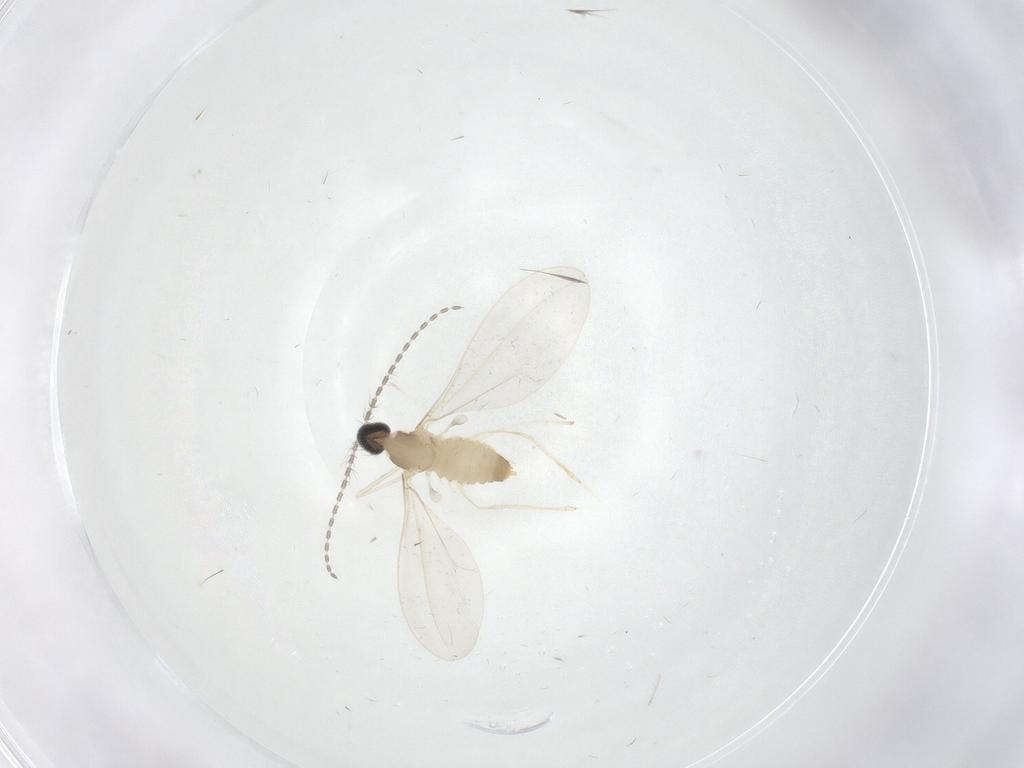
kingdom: Animalia
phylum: Arthropoda
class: Insecta
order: Diptera
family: Cecidomyiidae
